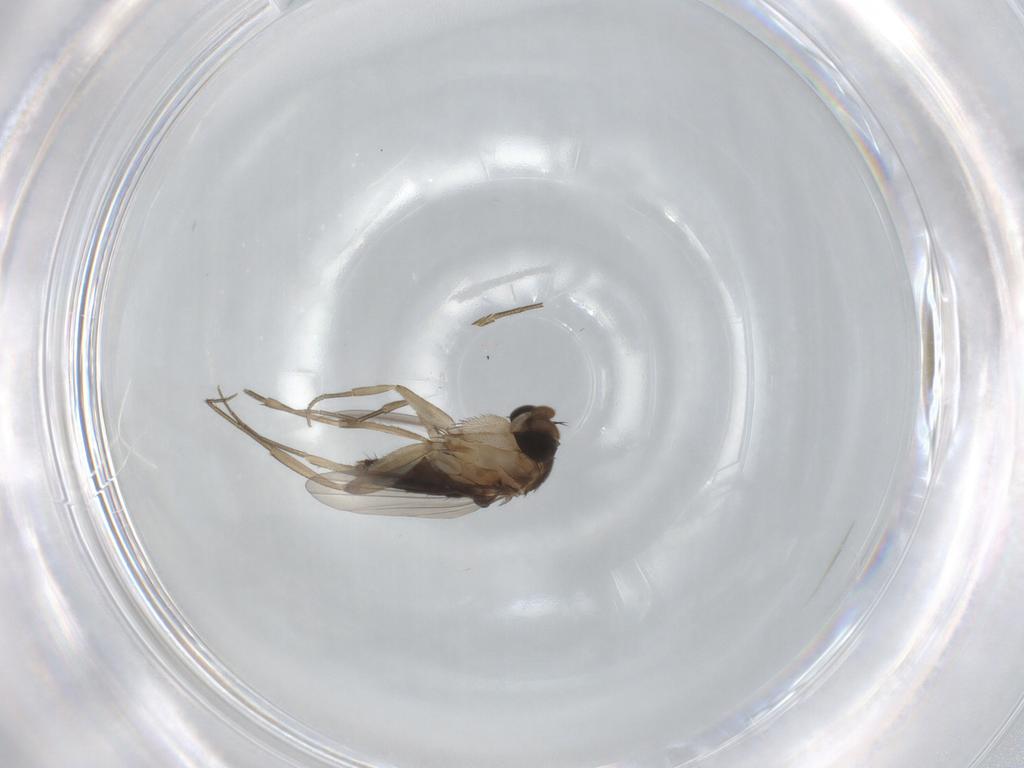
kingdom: Animalia
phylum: Arthropoda
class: Insecta
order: Diptera
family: Phoridae
